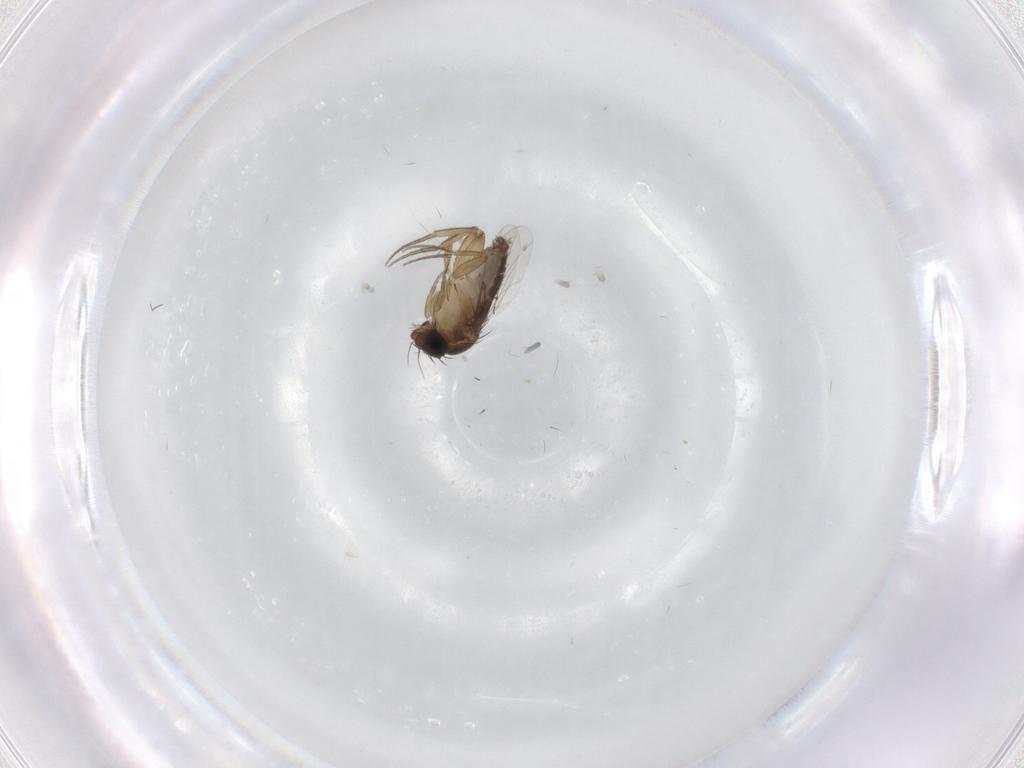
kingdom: Animalia
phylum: Arthropoda
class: Insecta
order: Diptera
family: Phoridae
